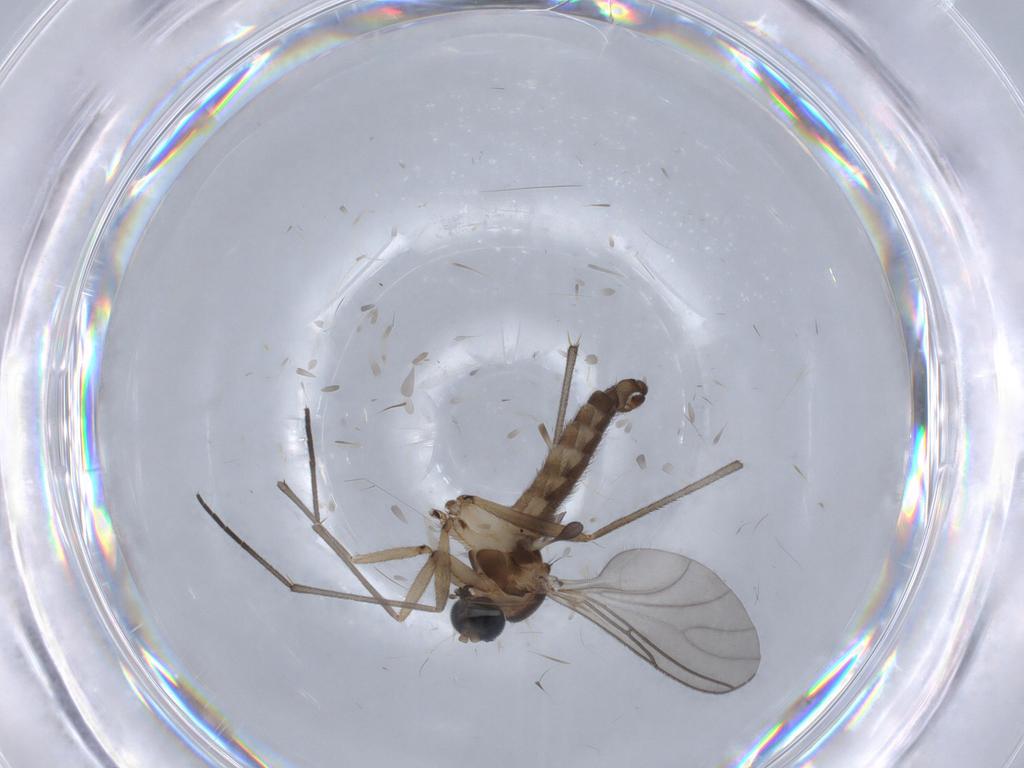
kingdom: Animalia
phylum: Arthropoda
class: Insecta
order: Diptera
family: Sciaridae
